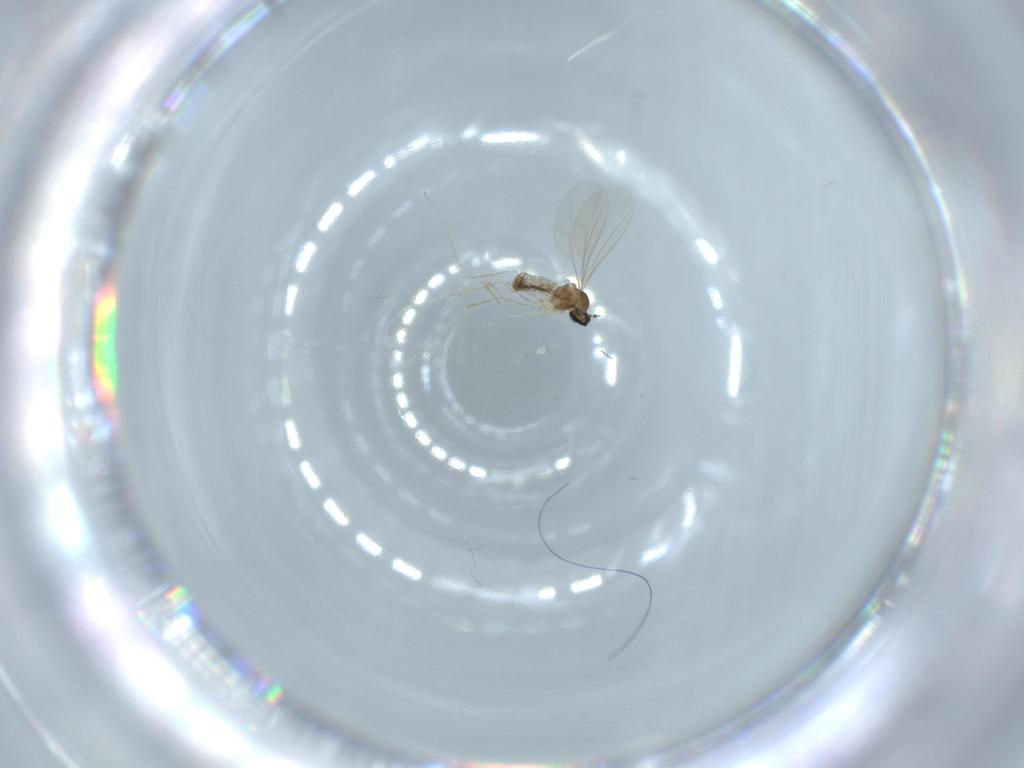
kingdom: Animalia
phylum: Arthropoda
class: Insecta
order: Diptera
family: Cecidomyiidae
